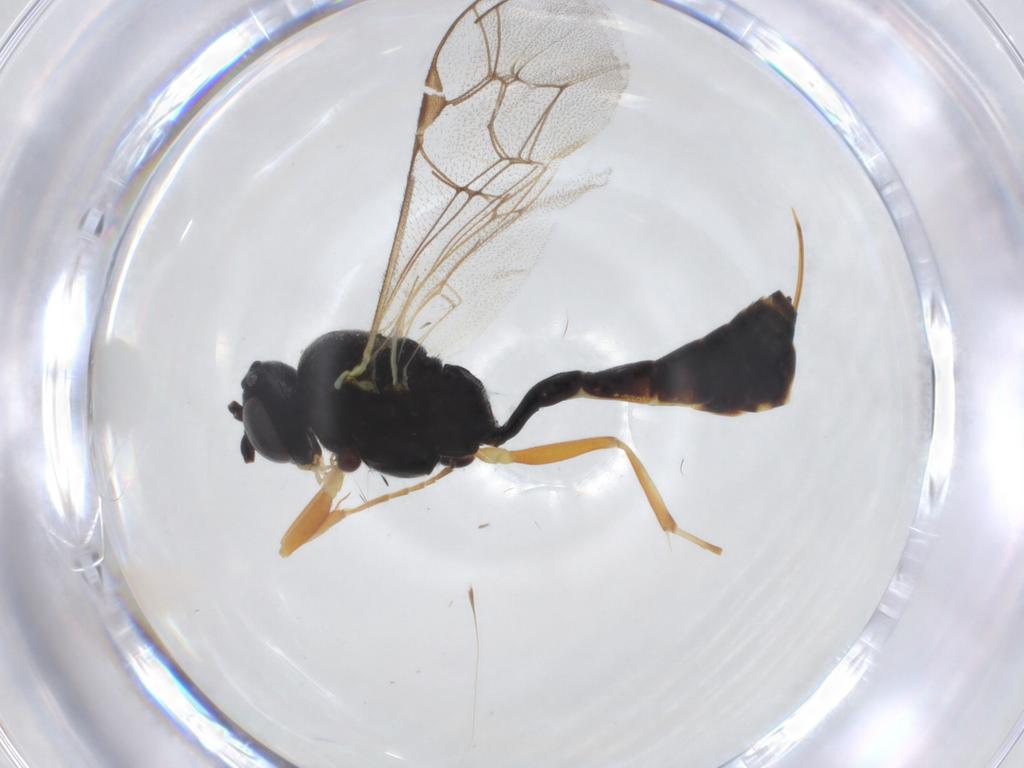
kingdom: Animalia
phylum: Arthropoda
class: Insecta
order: Hymenoptera
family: Ichneumonidae
